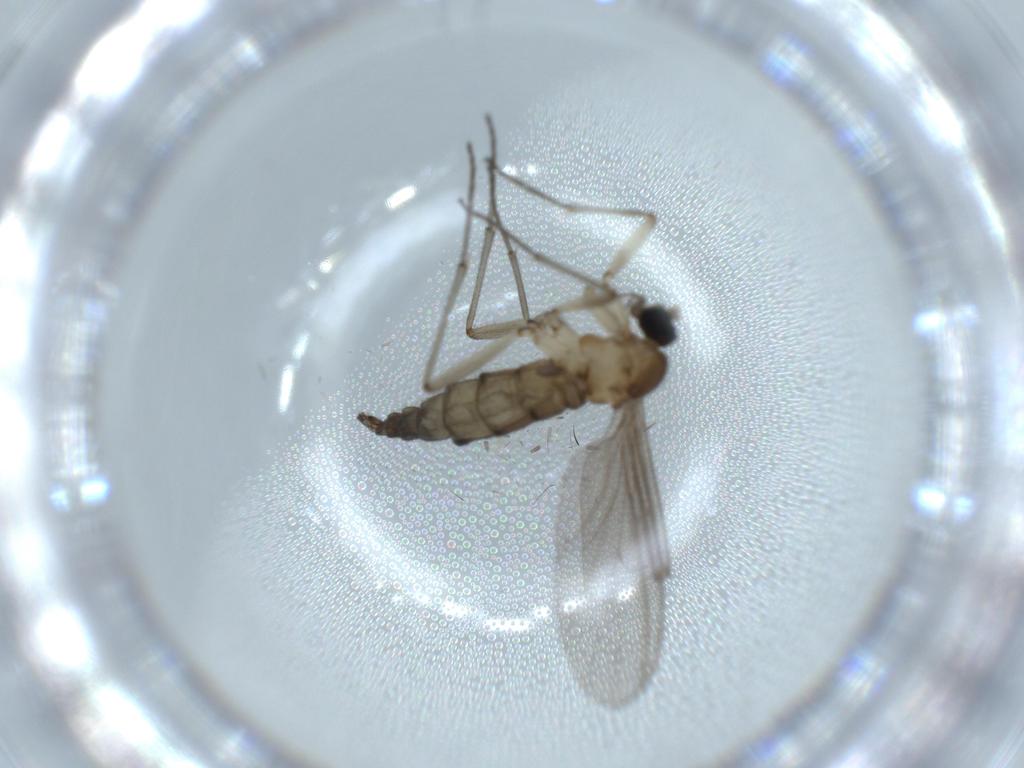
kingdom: Animalia
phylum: Arthropoda
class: Insecta
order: Diptera
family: Sciaridae
